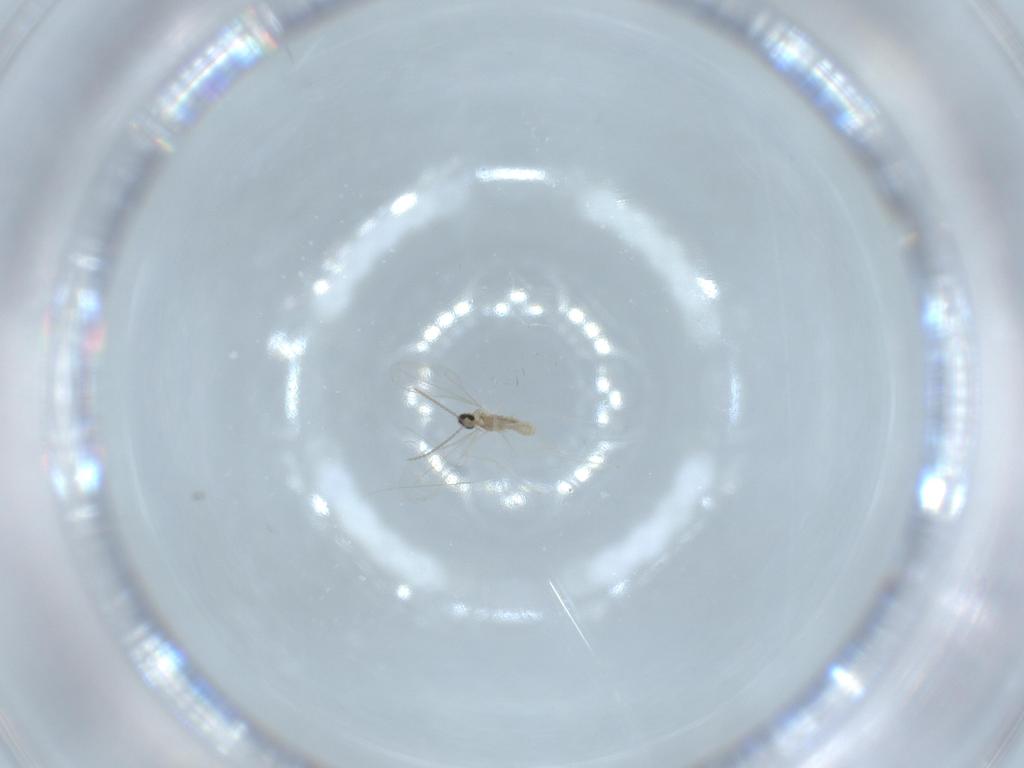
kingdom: Animalia
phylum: Arthropoda
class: Insecta
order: Diptera
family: Cecidomyiidae
